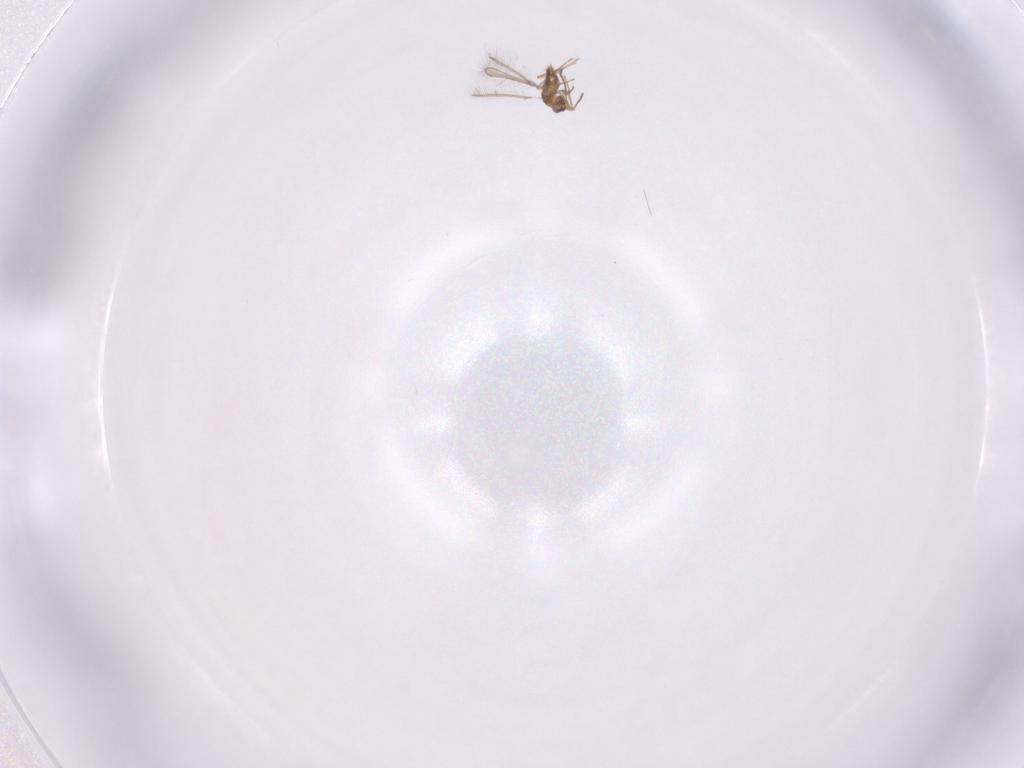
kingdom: Animalia
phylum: Arthropoda
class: Insecta
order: Hymenoptera
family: Mymaridae
